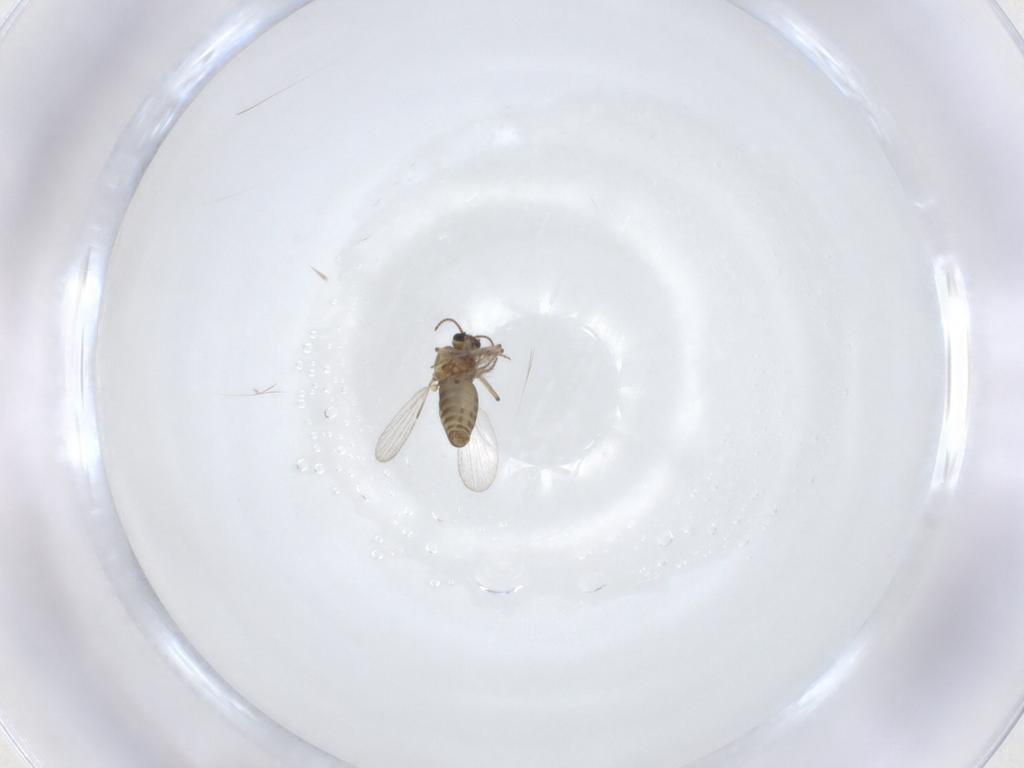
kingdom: Animalia
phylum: Arthropoda
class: Insecta
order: Diptera
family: Ceratopogonidae
